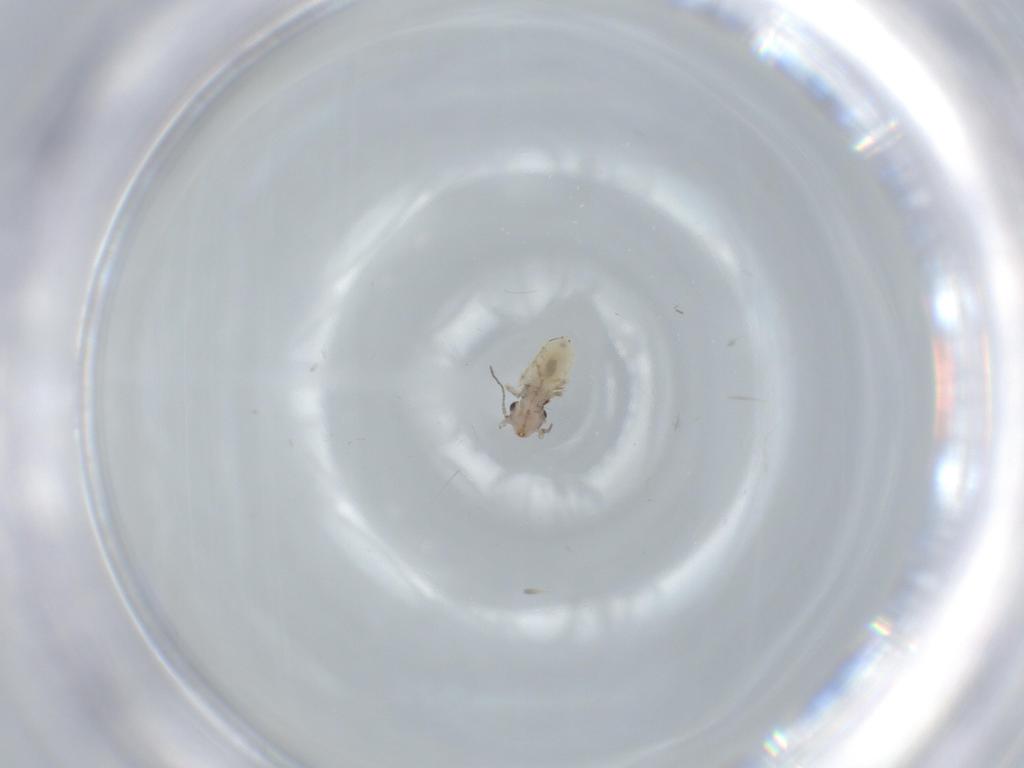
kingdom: Animalia
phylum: Arthropoda
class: Insecta
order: Psocodea
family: Lepidopsocidae
